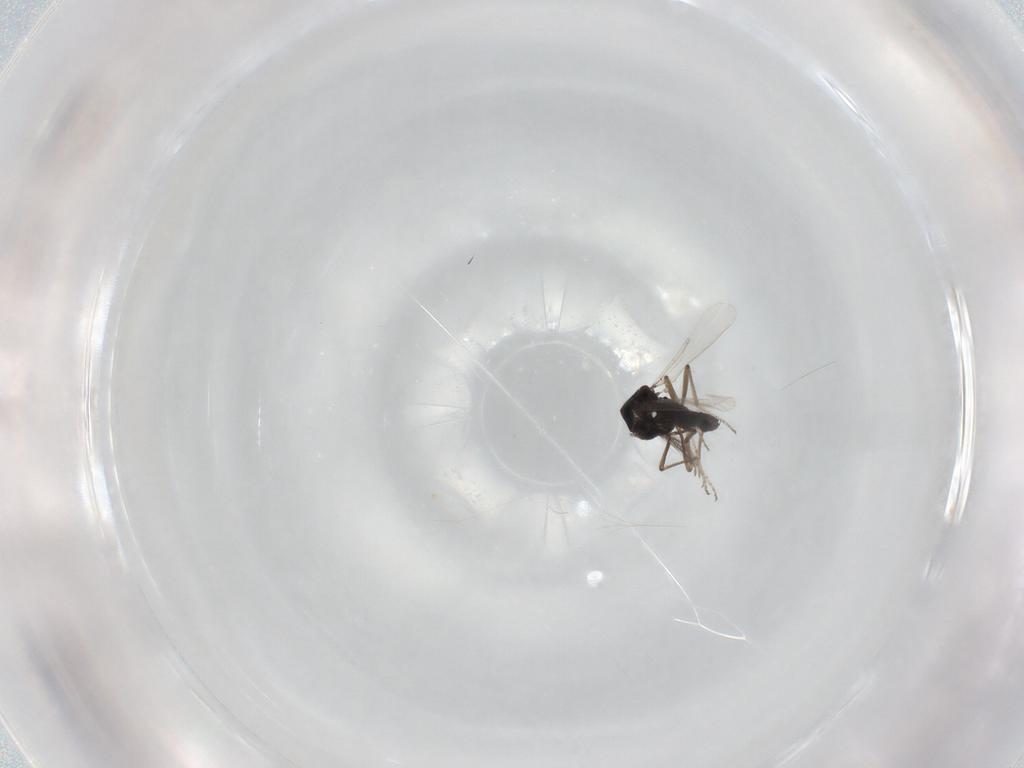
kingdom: Animalia
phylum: Arthropoda
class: Insecta
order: Diptera
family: Ceratopogonidae
